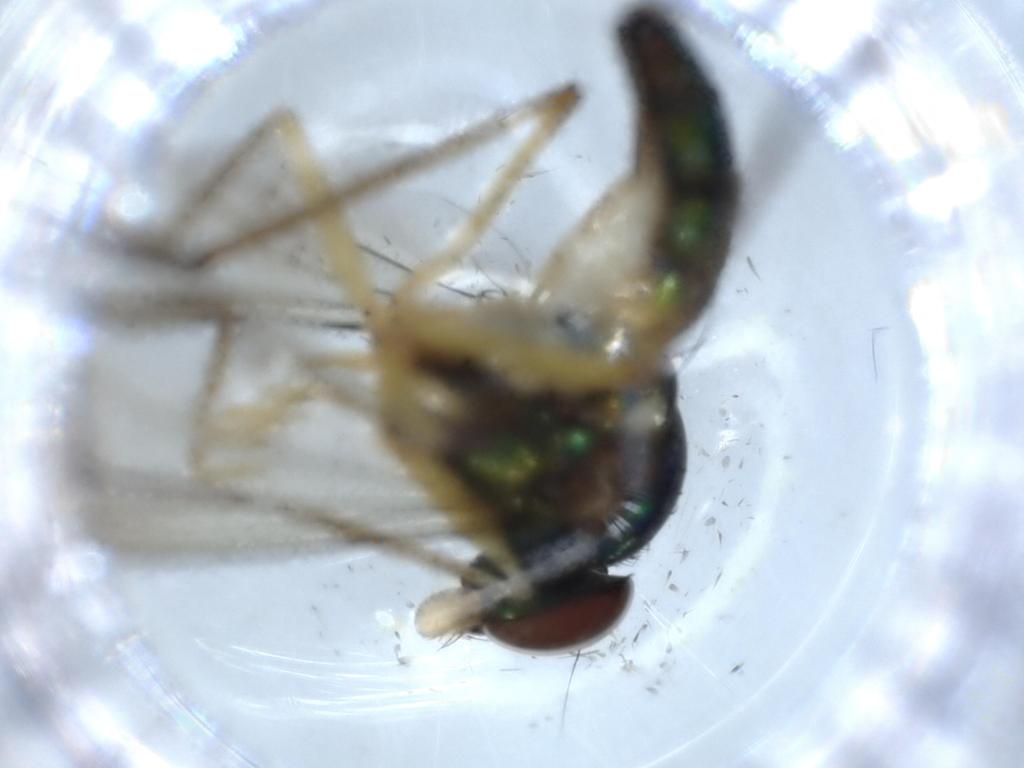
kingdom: Animalia
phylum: Arthropoda
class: Insecta
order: Diptera
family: Dolichopodidae
